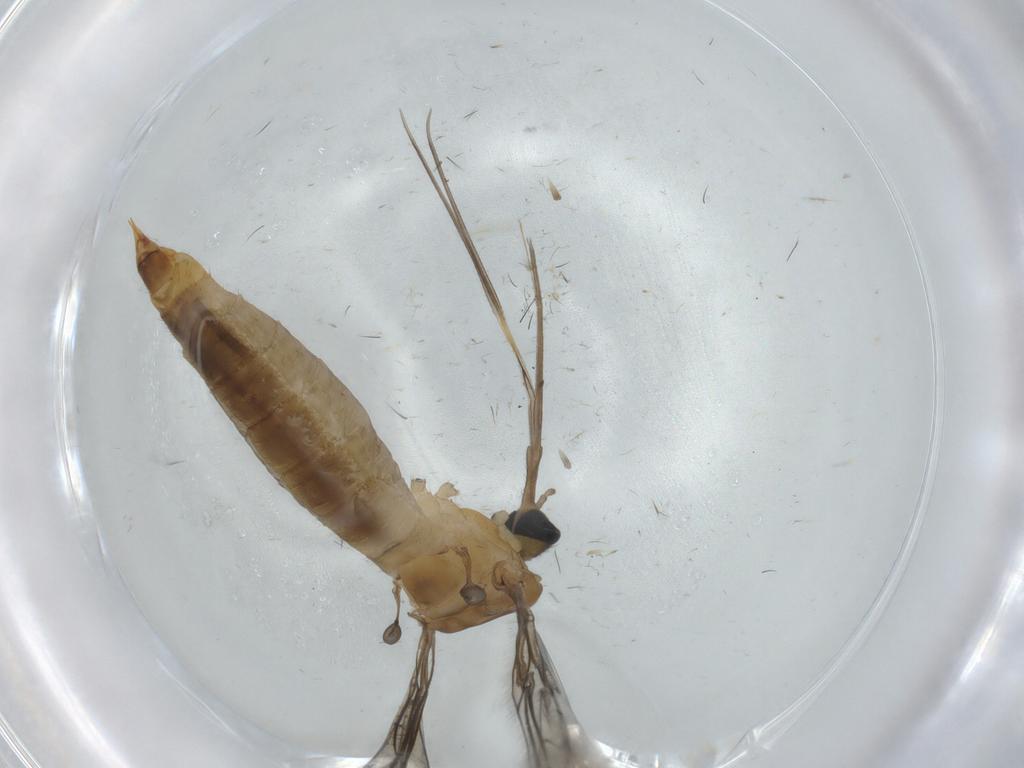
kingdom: Animalia
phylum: Arthropoda
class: Insecta
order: Diptera
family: Chironomidae
